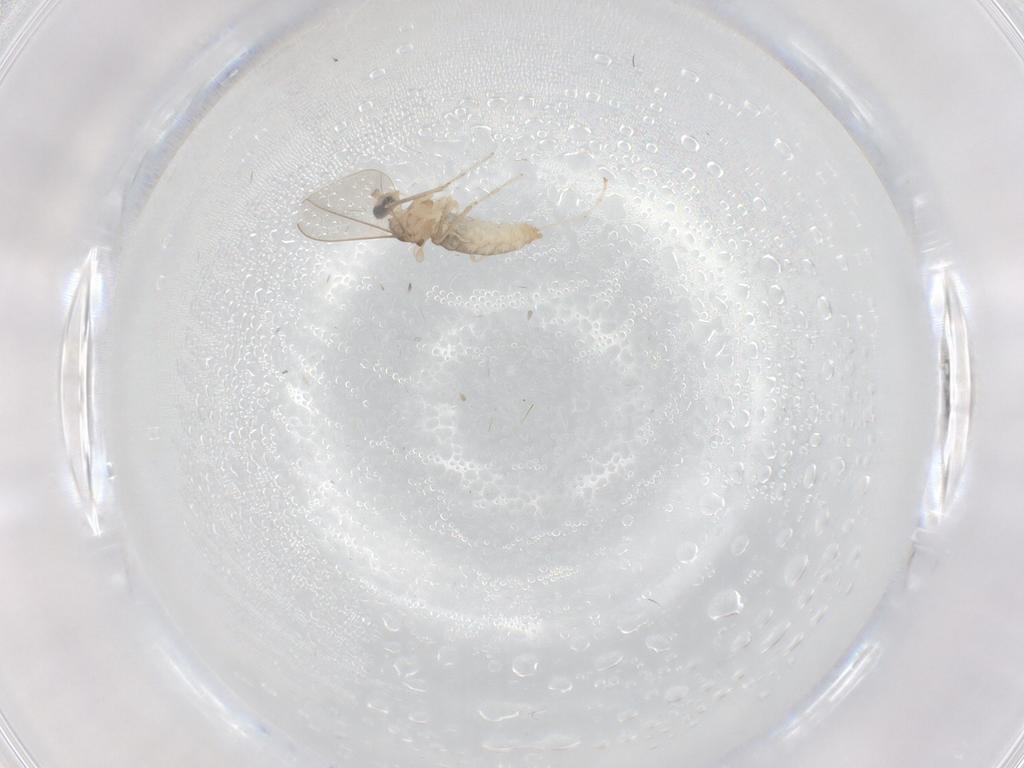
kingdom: Animalia
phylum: Arthropoda
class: Insecta
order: Diptera
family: Cecidomyiidae
